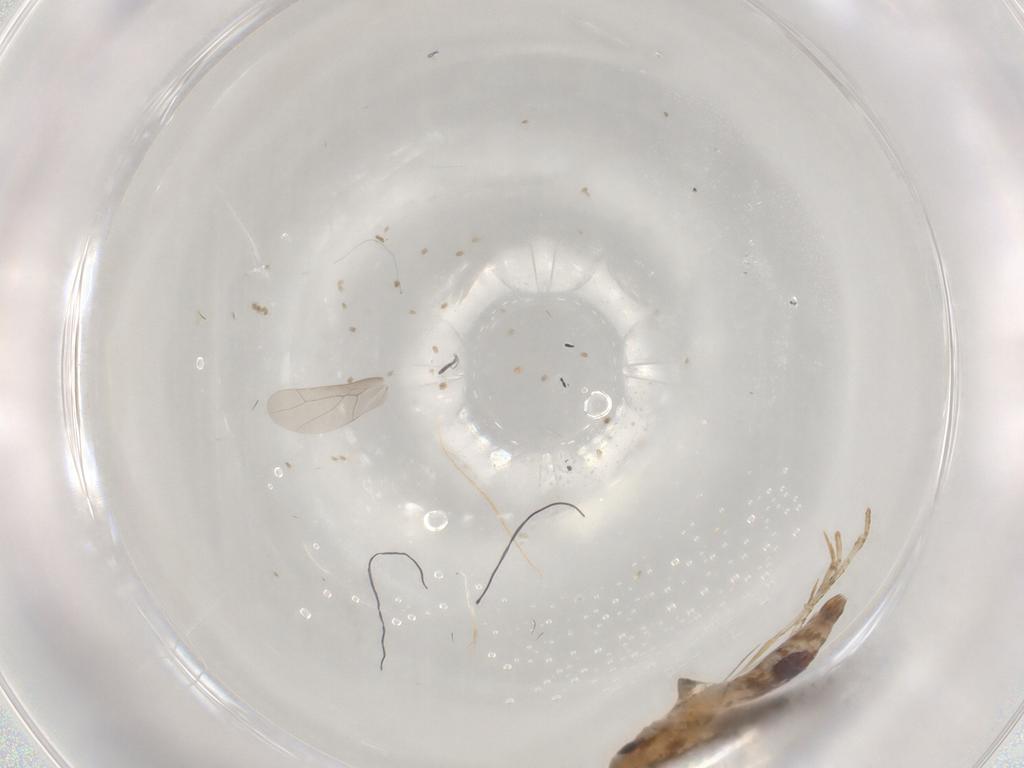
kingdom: Animalia
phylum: Arthropoda
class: Insecta
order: Lepidoptera
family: Cosmopterigidae
